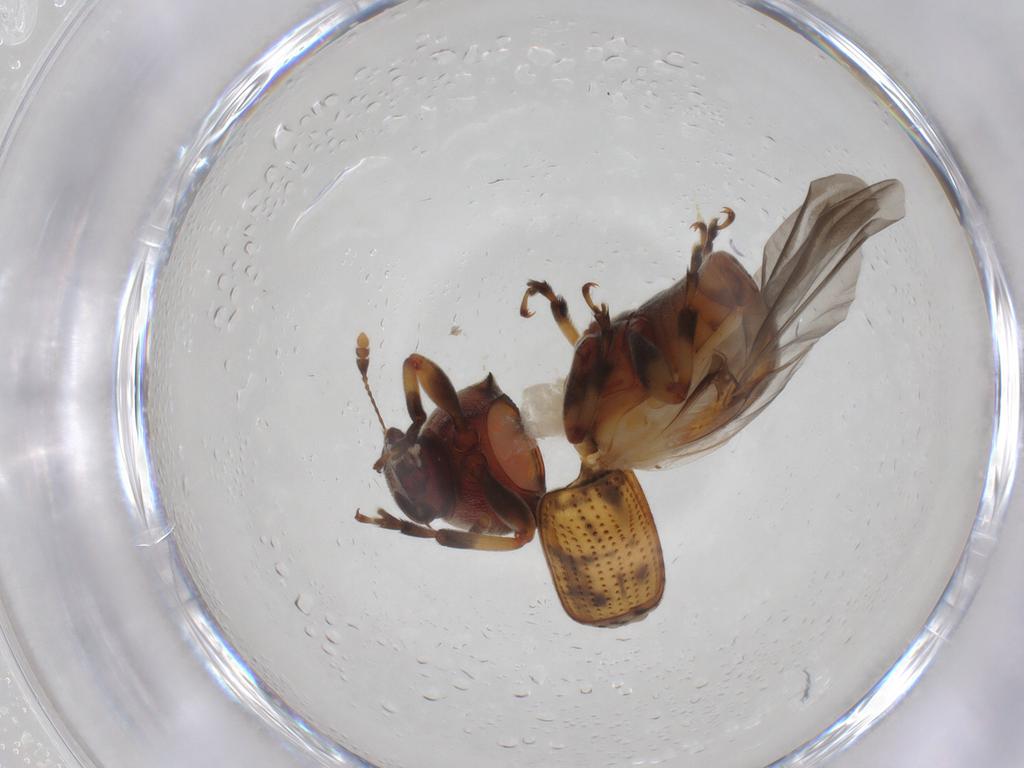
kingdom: Animalia
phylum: Arthropoda
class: Insecta
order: Coleoptera
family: Anthribidae
